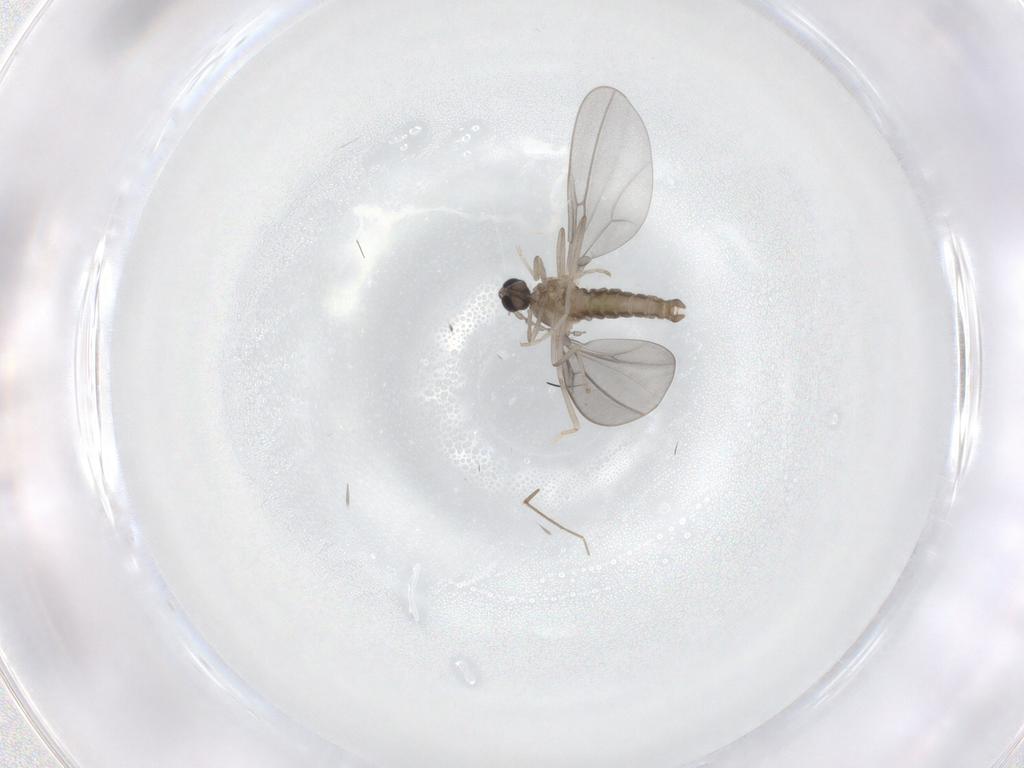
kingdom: Animalia
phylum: Arthropoda
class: Insecta
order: Diptera
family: Cecidomyiidae
